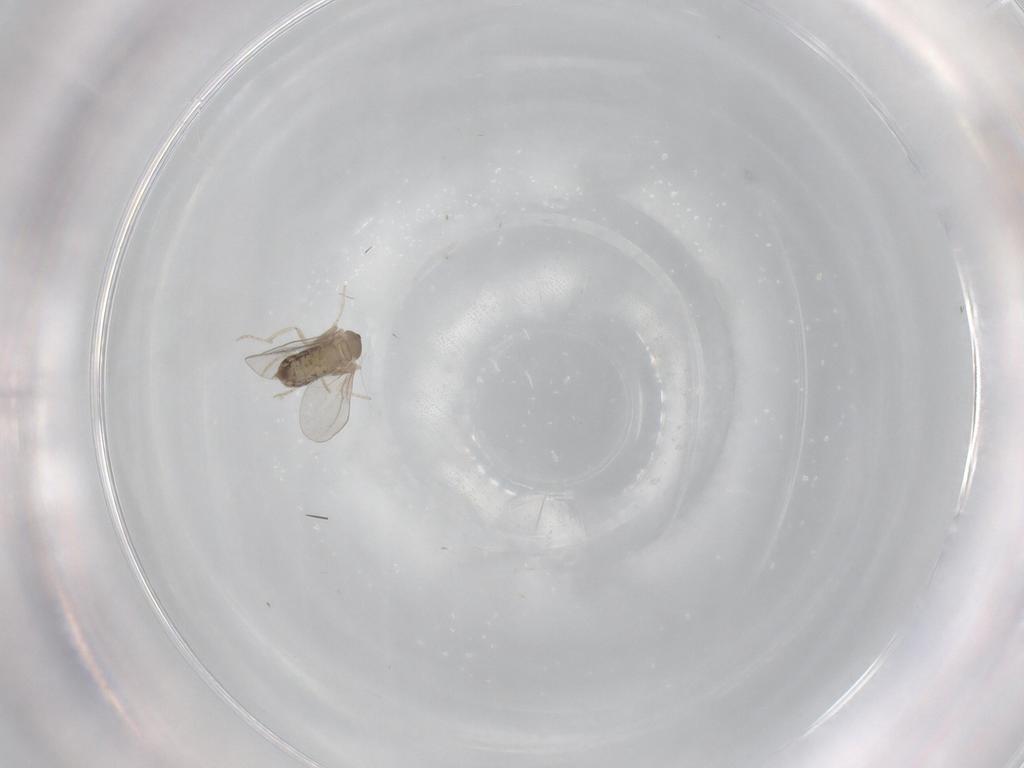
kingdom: Animalia
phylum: Arthropoda
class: Insecta
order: Diptera
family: Cecidomyiidae
